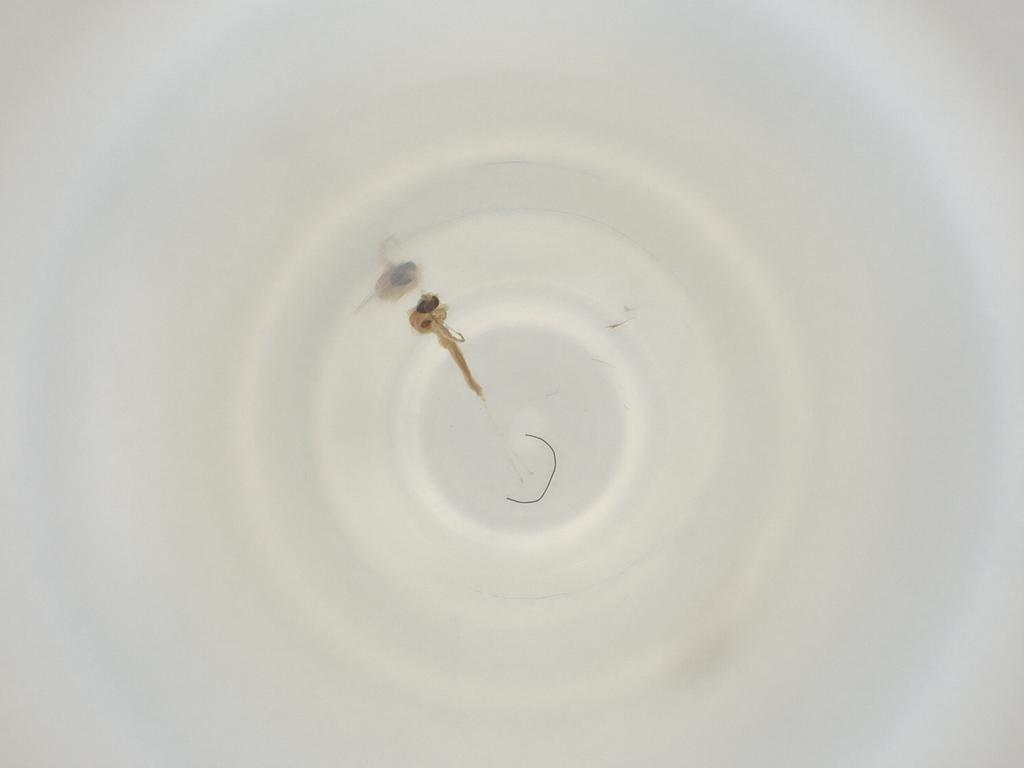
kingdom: Animalia
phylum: Arthropoda
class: Insecta
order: Diptera
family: Cecidomyiidae
